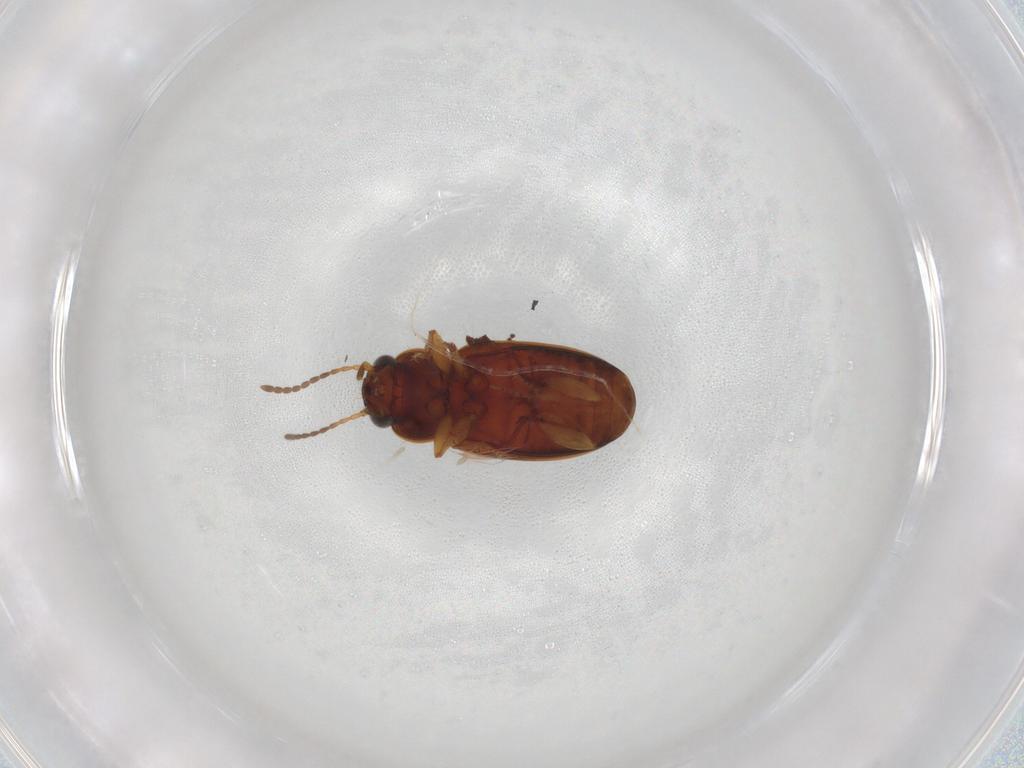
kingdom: Animalia
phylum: Arthropoda
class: Insecta
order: Coleoptera
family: Carabidae
